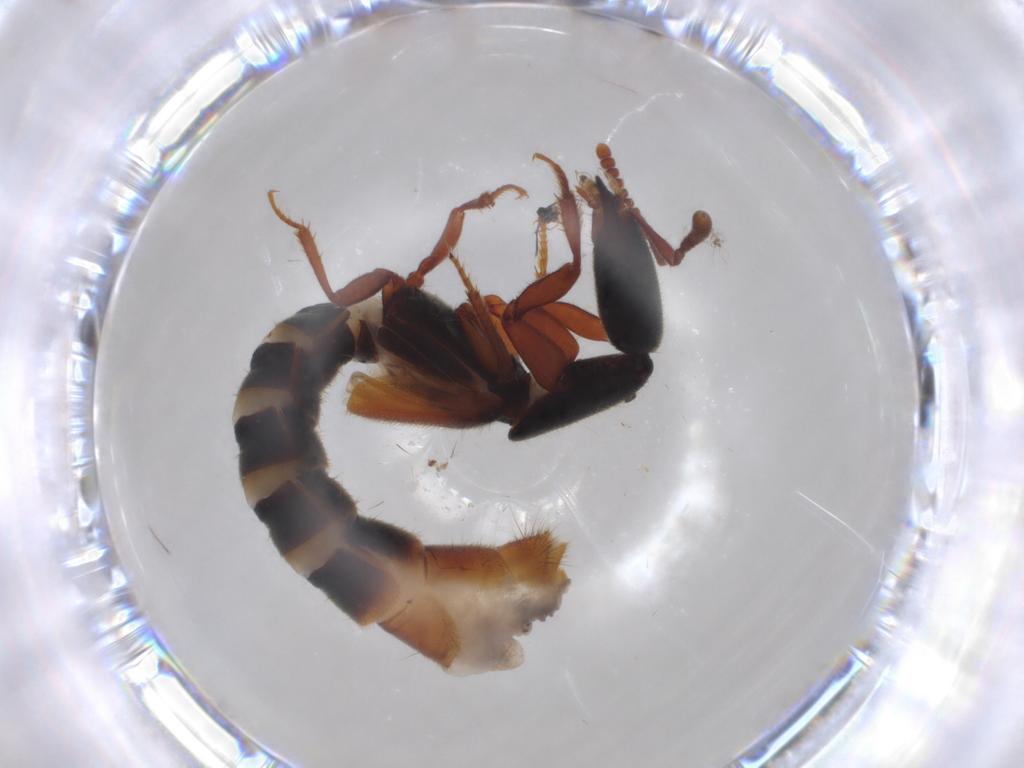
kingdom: Animalia
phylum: Arthropoda
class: Insecta
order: Coleoptera
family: Staphylinidae
